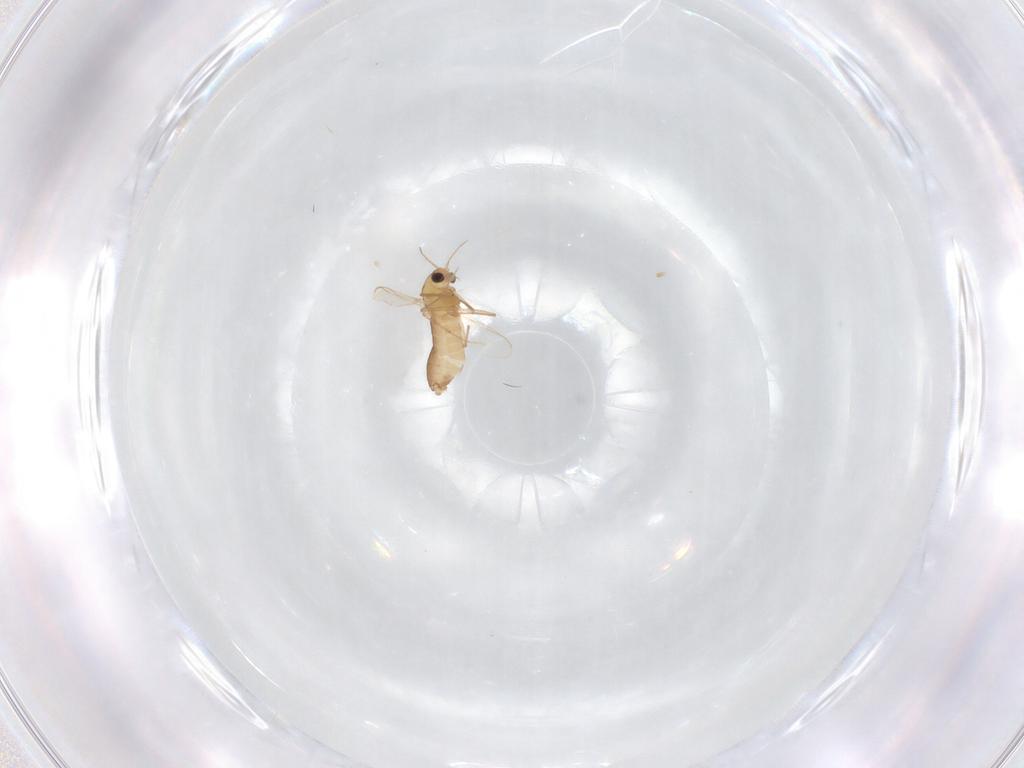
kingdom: Animalia
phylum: Arthropoda
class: Insecta
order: Diptera
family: Chironomidae
